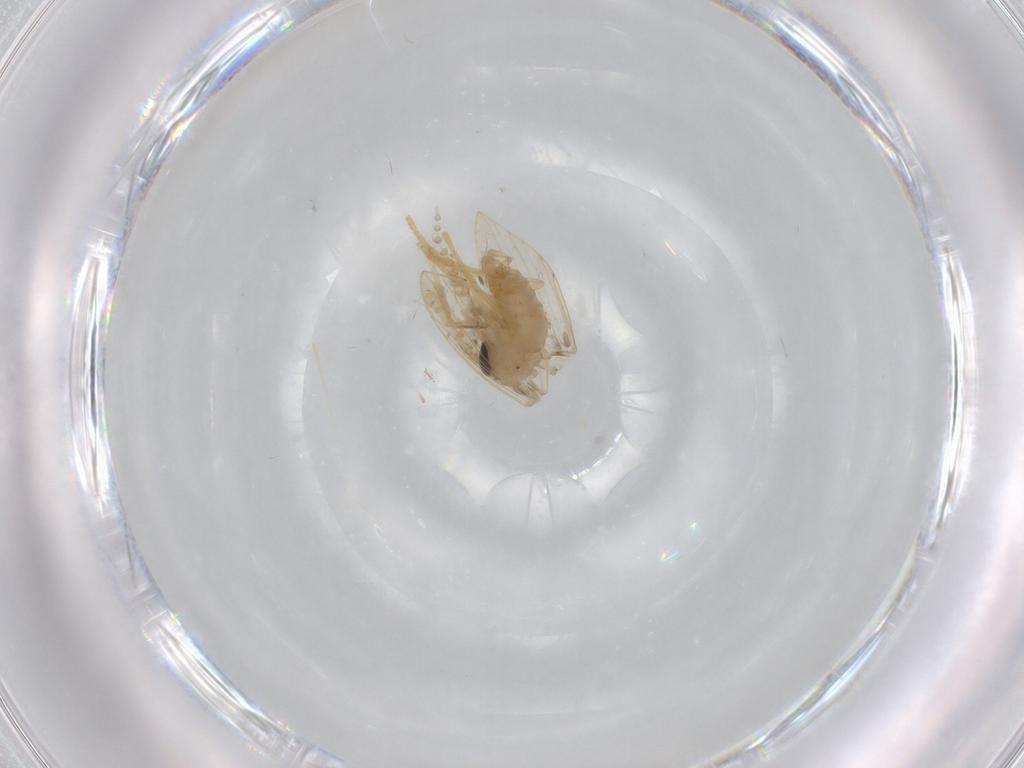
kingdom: Animalia
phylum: Arthropoda
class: Insecta
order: Diptera
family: Psychodidae
